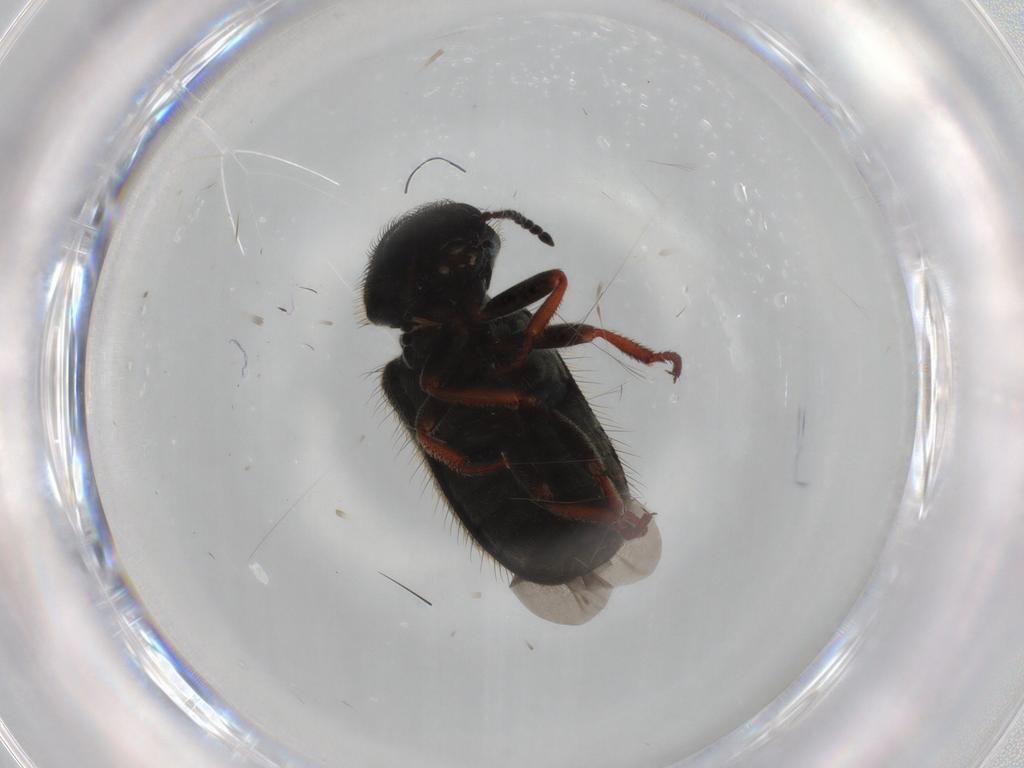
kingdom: Animalia
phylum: Arthropoda
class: Insecta
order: Coleoptera
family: Melyridae
